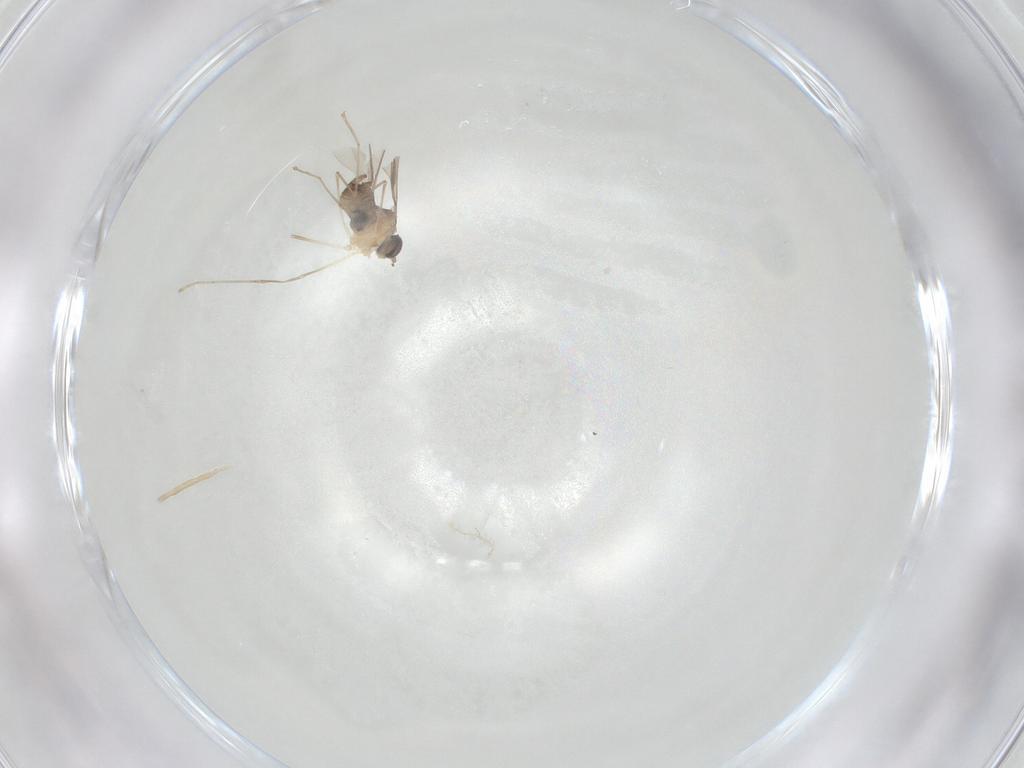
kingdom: Animalia
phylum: Arthropoda
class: Insecta
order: Diptera
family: Cecidomyiidae
